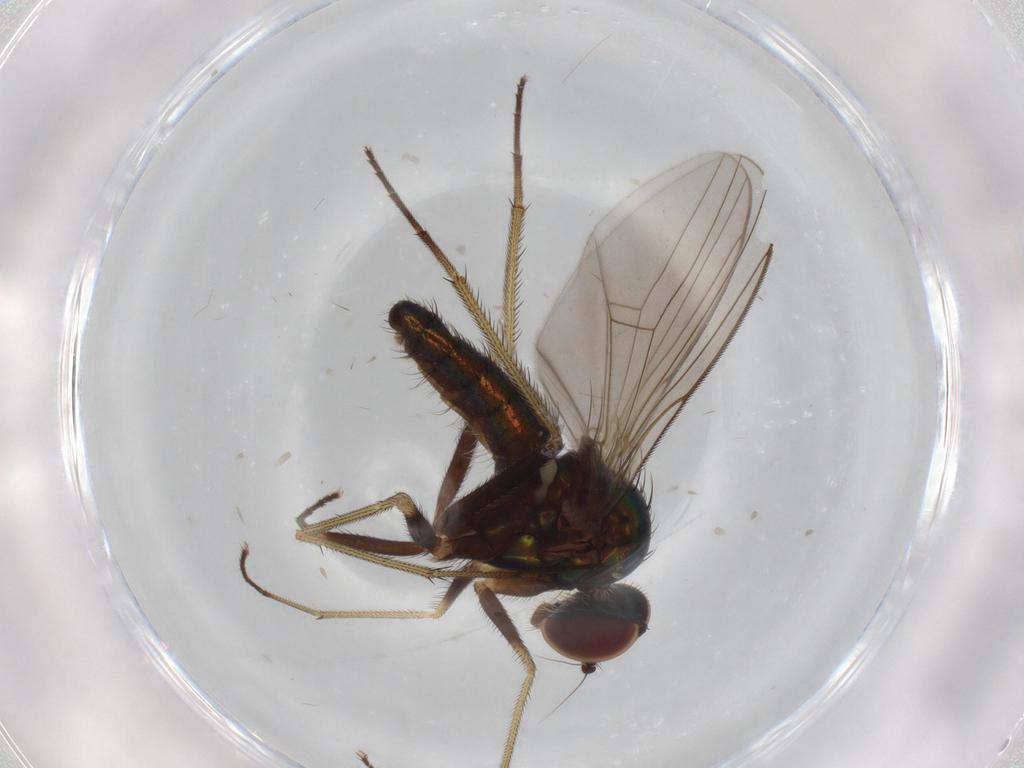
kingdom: Animalia
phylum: Arthropoda
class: Insecta
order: Diptera
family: Dolichopodidae
